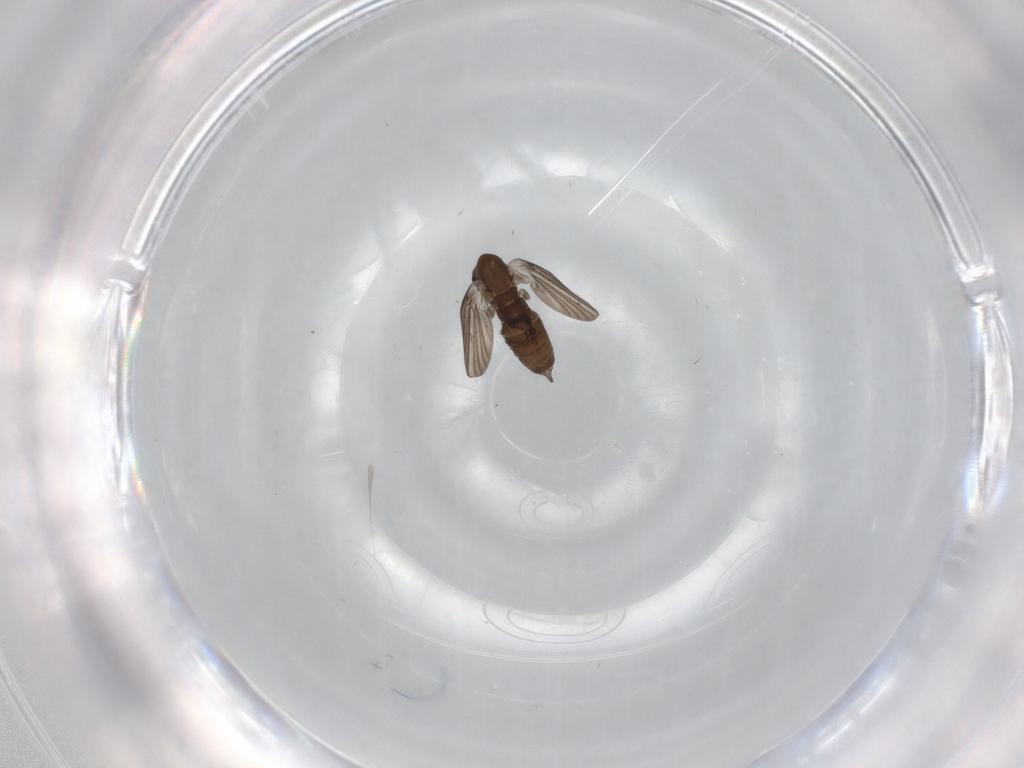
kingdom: Animalia
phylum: Arthropoda
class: Insecta
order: Diptera
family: Phoridae
